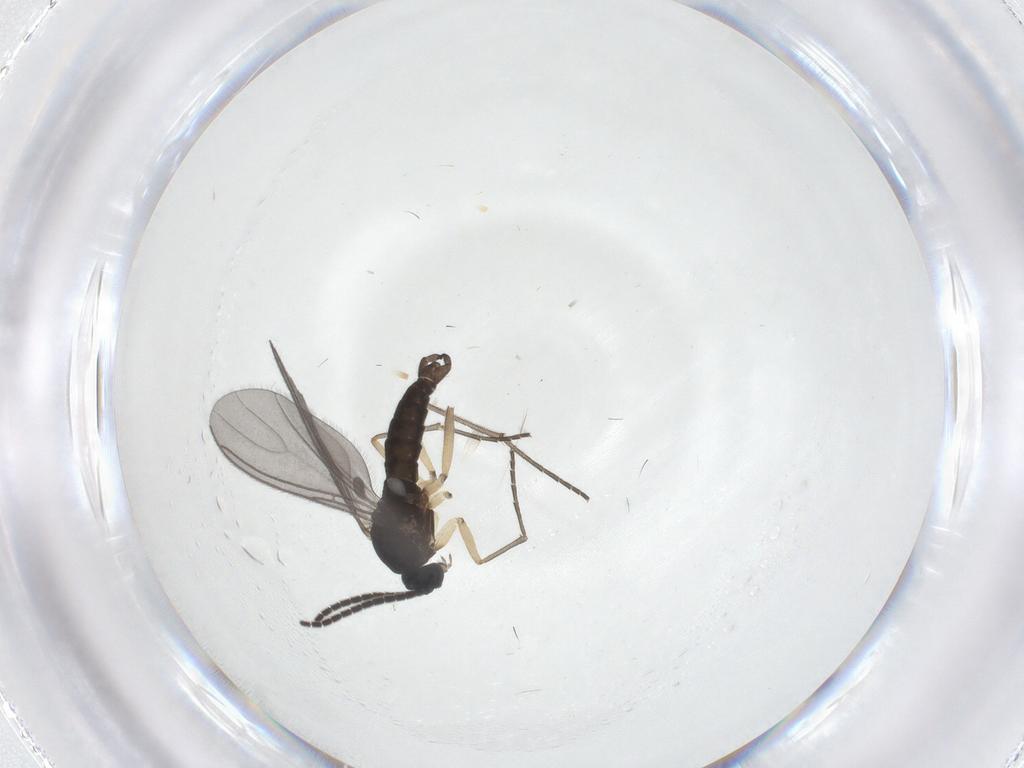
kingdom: Animalia
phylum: Arthropoda
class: Insecta
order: Diptera
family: Sciaridae
